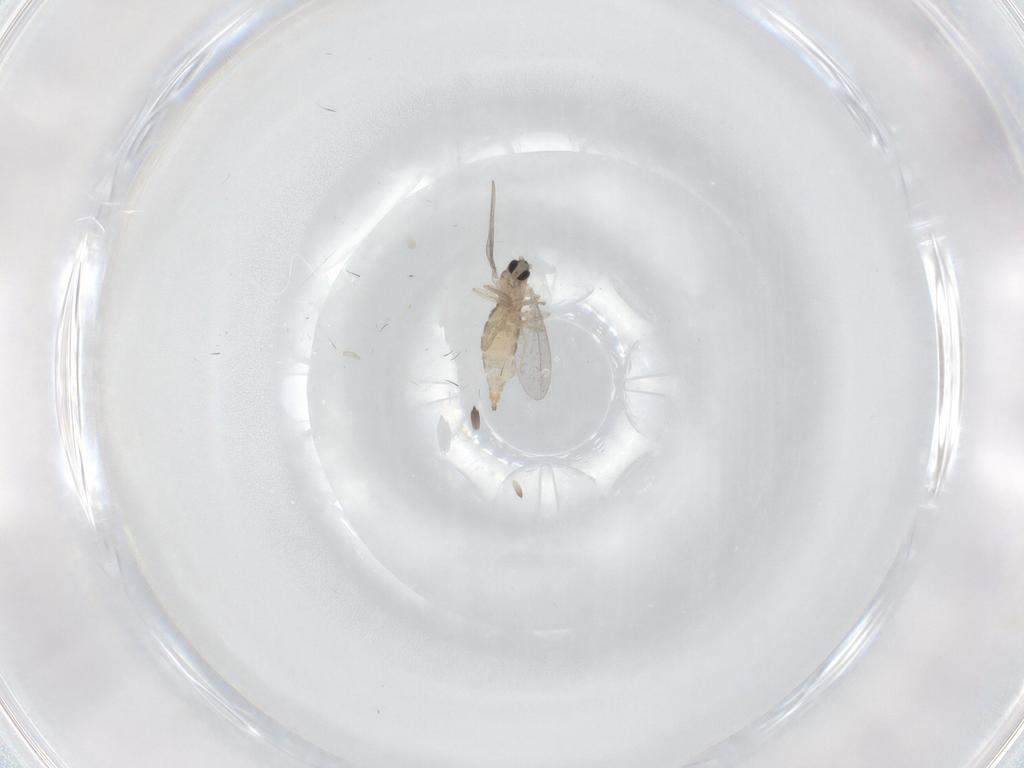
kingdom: Animalia
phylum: Arthropoda
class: Insecta
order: Diptera
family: Cecidomyiidae
